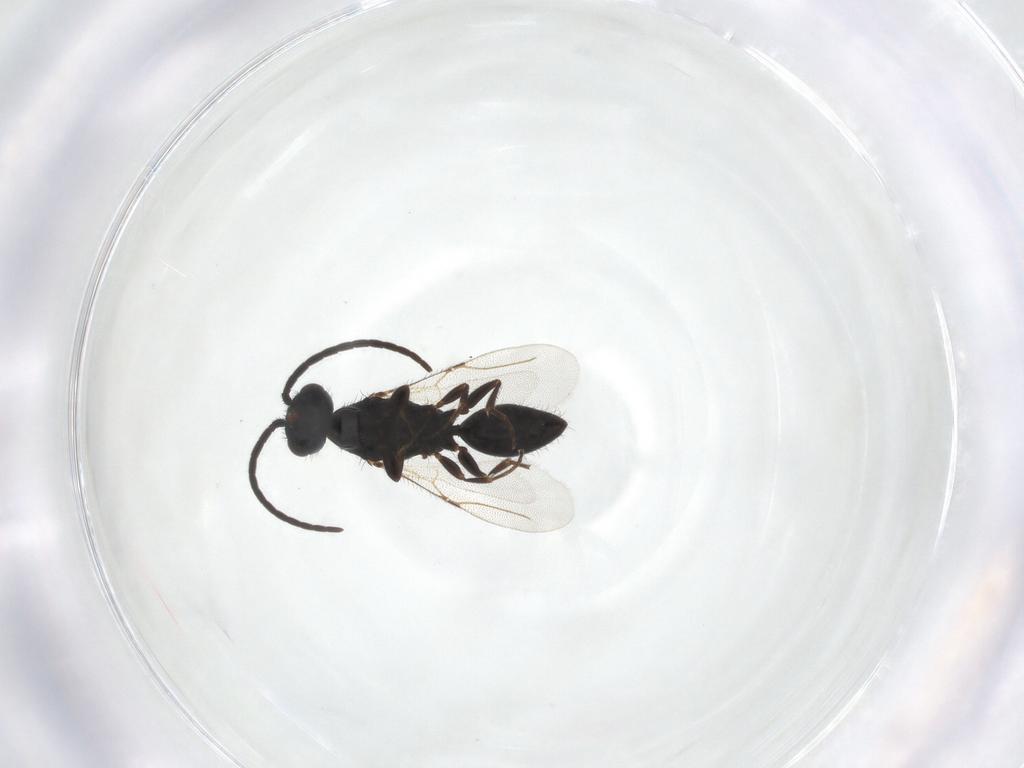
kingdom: Animalia
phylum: Arthropoda
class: Insecta
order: Hymenoptera
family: Bethylidae
